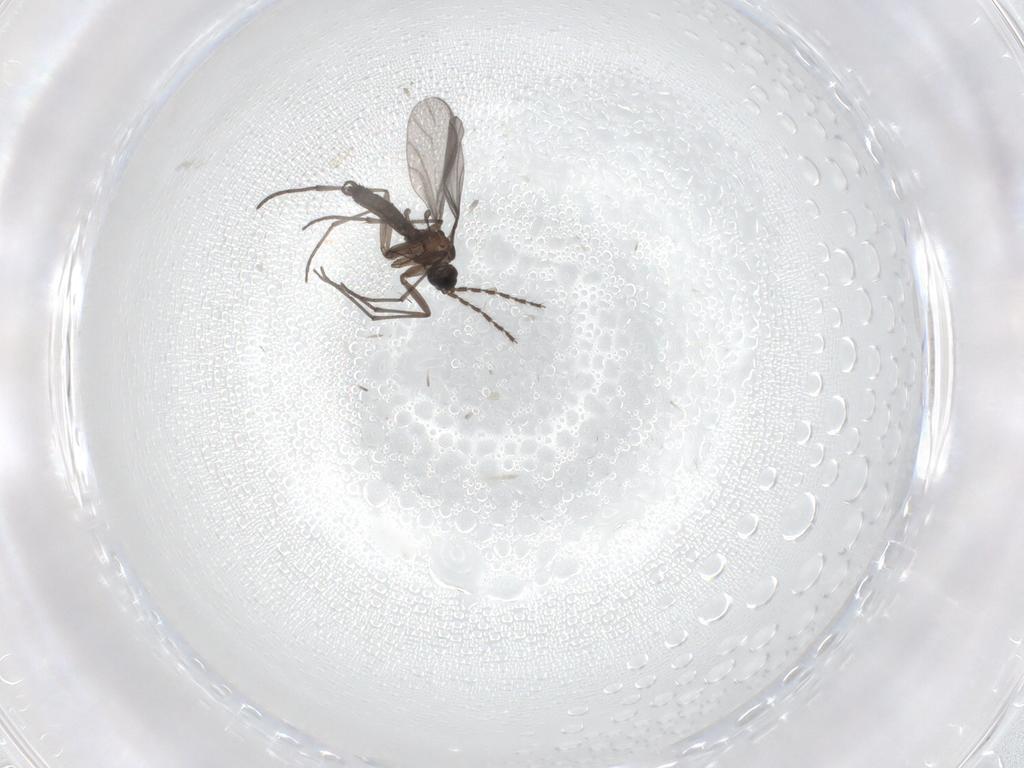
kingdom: Animalia
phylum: Arthropoda
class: Insecta
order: Diptera
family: Sciaridae
